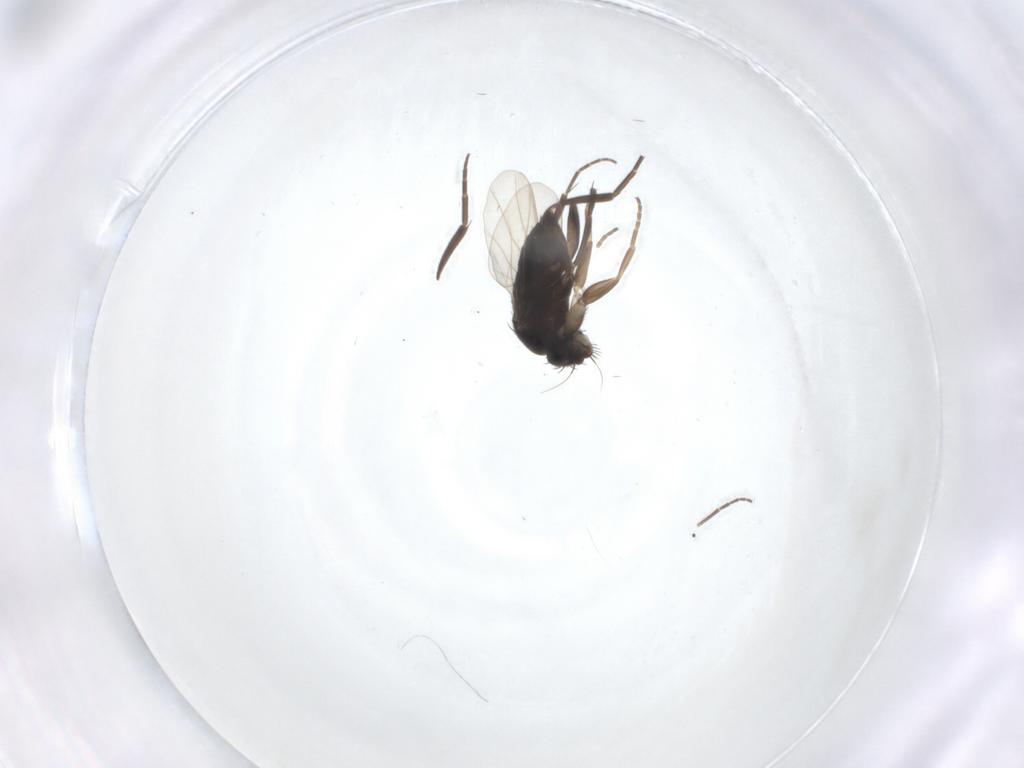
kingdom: Animalia
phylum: Arthropoda
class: Insecta
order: Diptera
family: Phoridae
